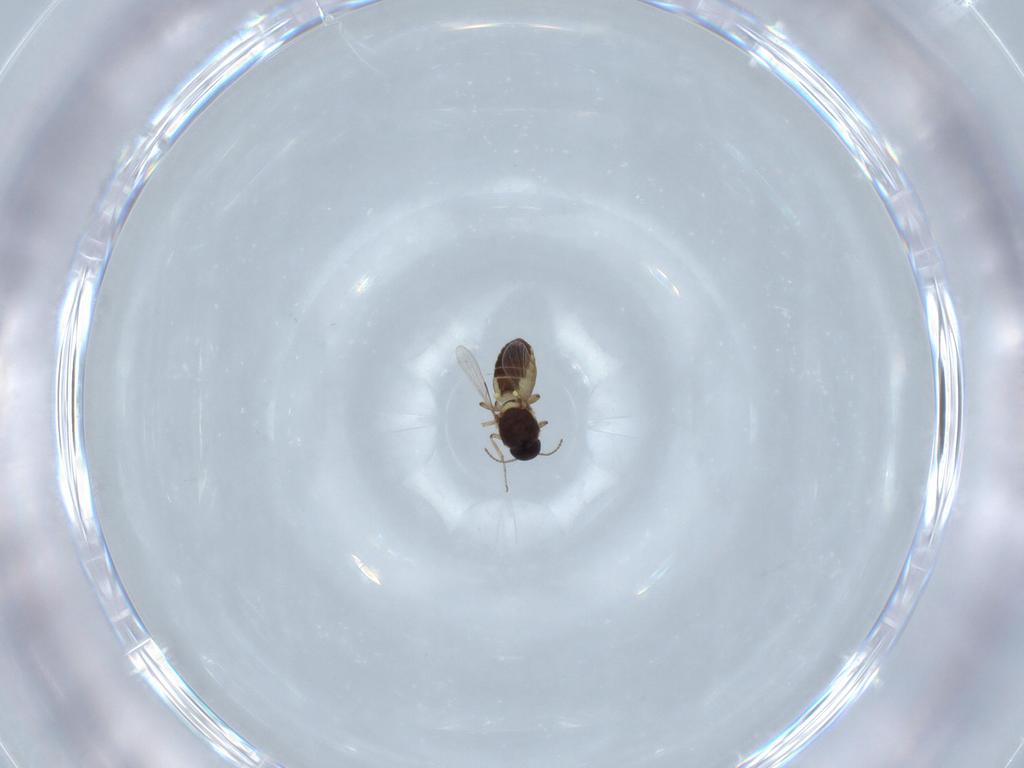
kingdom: Animalia
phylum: Arthropoda
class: Insecta
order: Diptera
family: Ceratopogonidae
